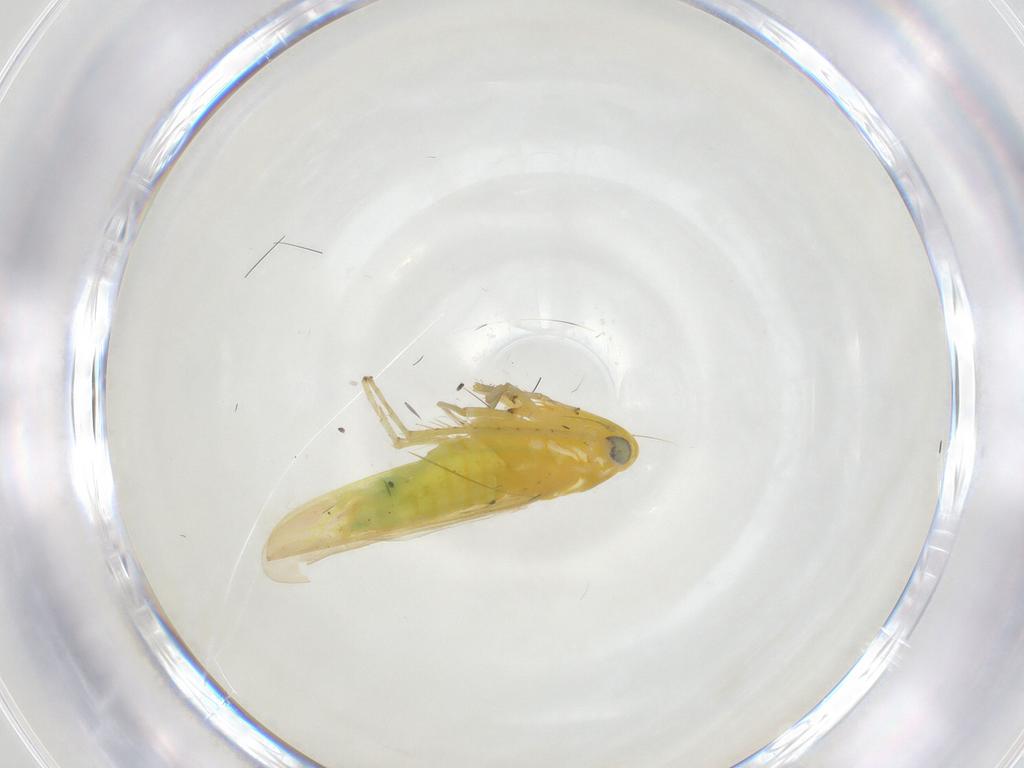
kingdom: Animalia
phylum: Arthropoda
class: Insecta
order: Hemiptera
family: Cicadellidae
